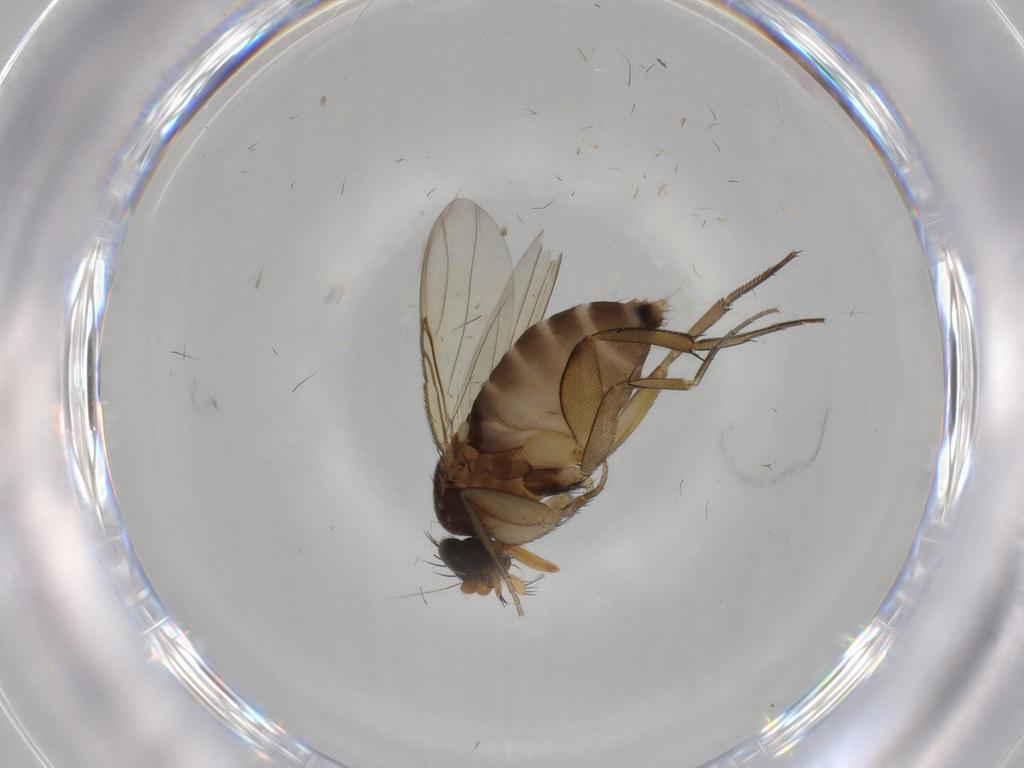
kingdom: Animalia
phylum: Arthropoda
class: Insecta
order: Diptera
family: Phoridae
